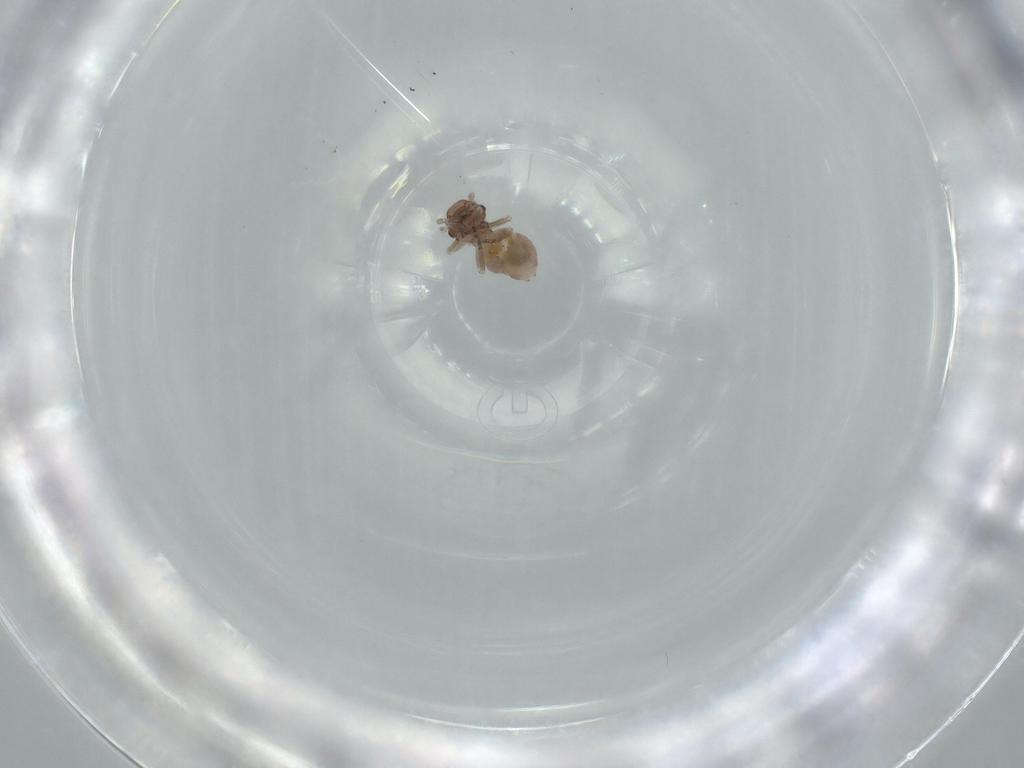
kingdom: Animalia
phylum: Arthropoda
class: Insecta
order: Psocodea
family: Ectopsocidae
